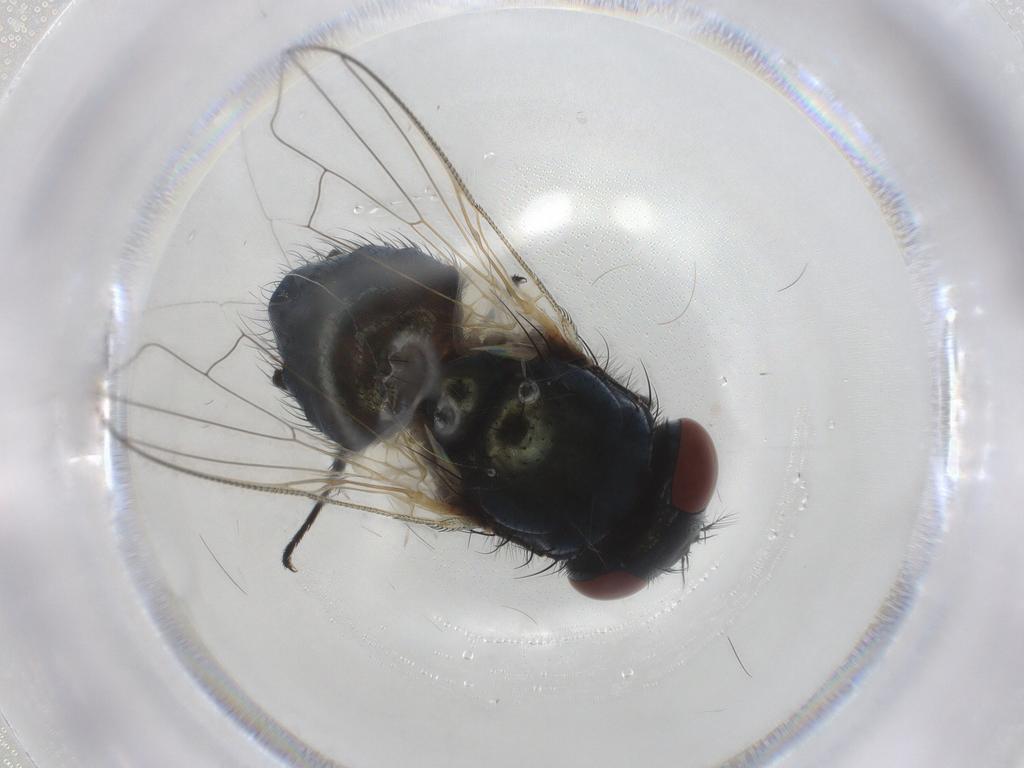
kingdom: Animalia
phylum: Arthropoda
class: Insecta
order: Diptera
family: Muscidae
